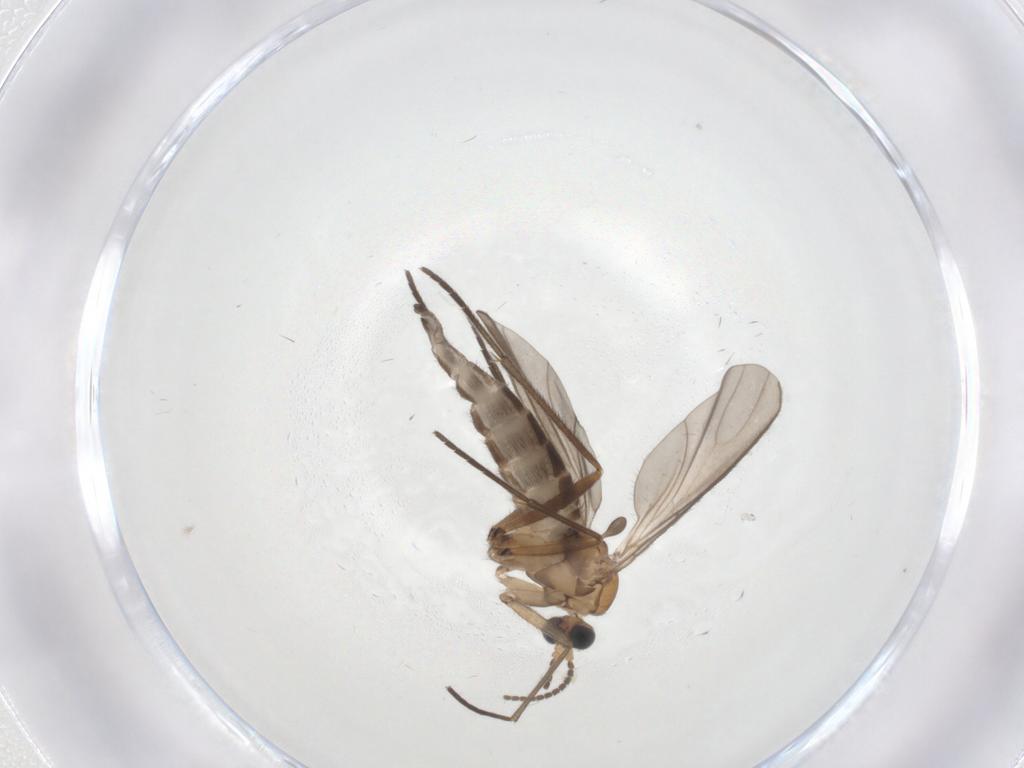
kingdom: Animalia
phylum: Arthropoda
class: Insecta
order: Diptera
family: Sciaridae
